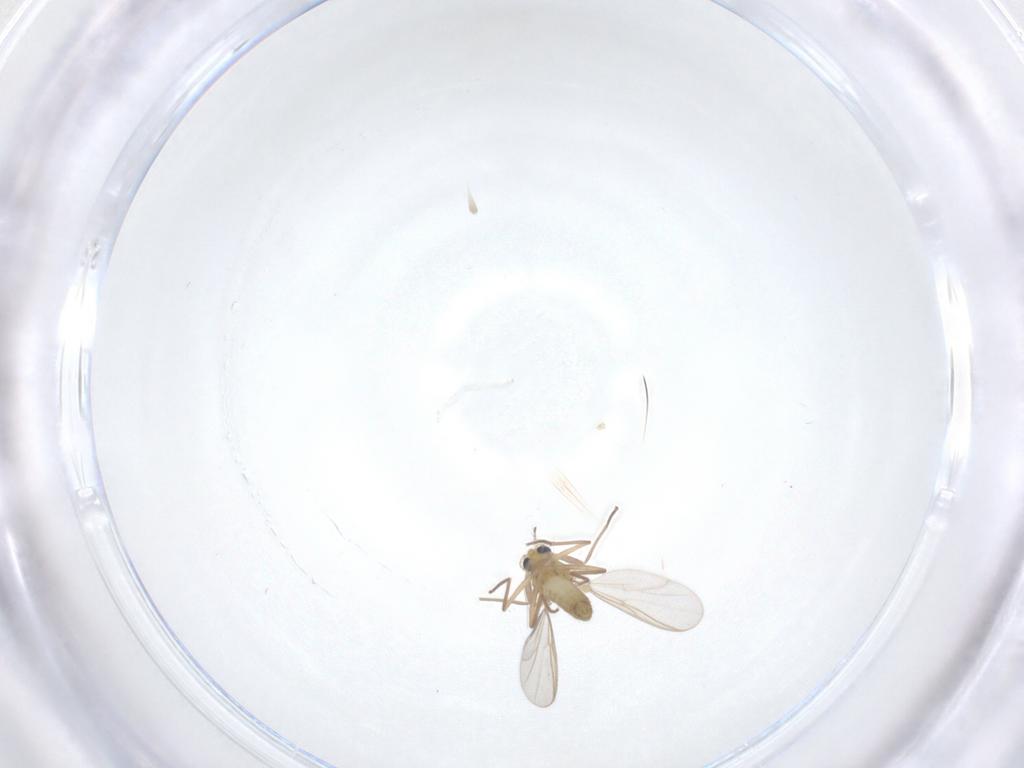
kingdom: Animalia
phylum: Arthropoda
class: Insecta
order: Diptera
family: Chironomidae
